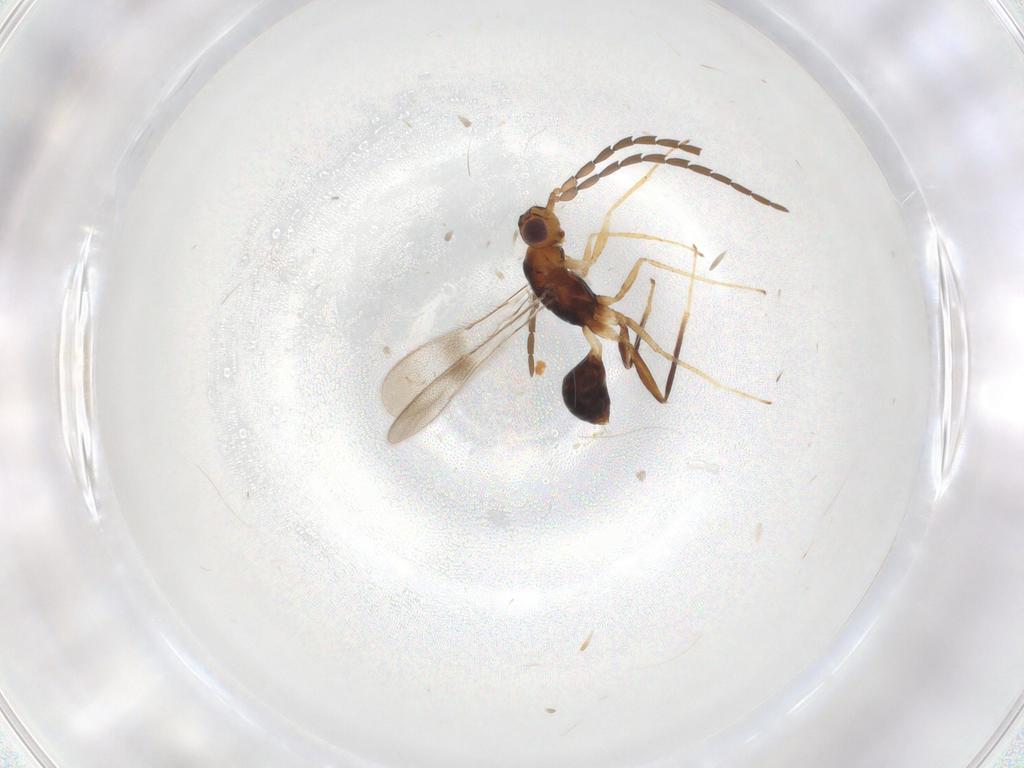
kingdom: Animalia
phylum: Arthropoda
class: Insecta
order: Hymenoptera
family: Mymaridae
